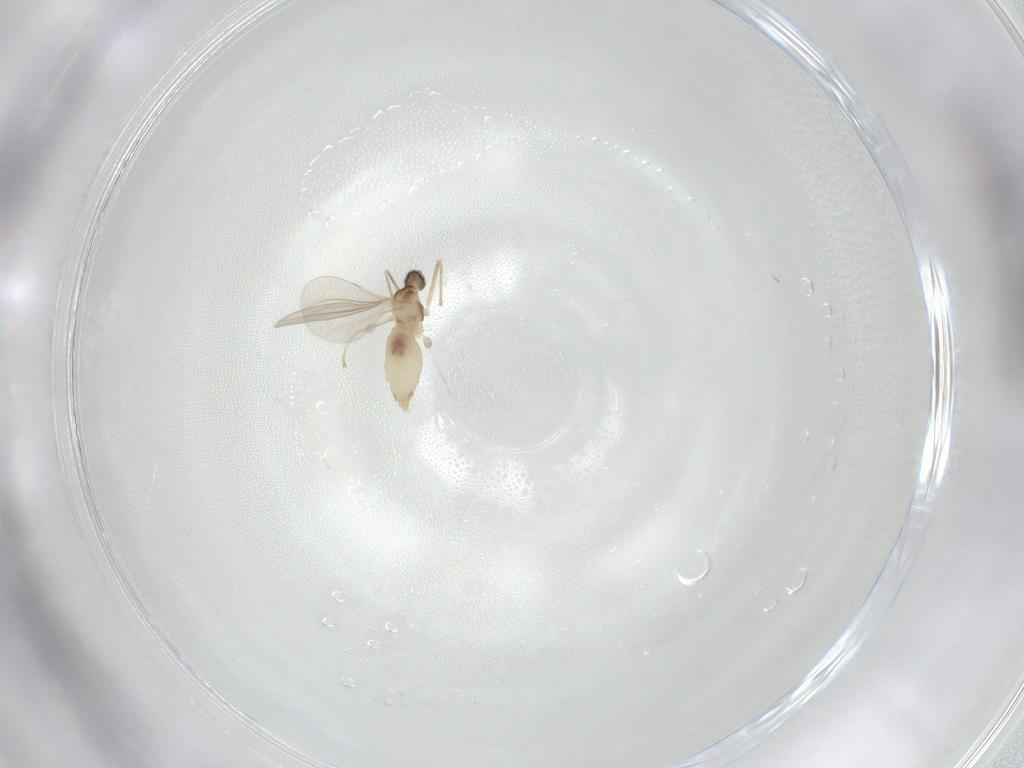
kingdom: Animalia
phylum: Arthropoda
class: Insecta
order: Diptera
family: Cecidomyiidae
